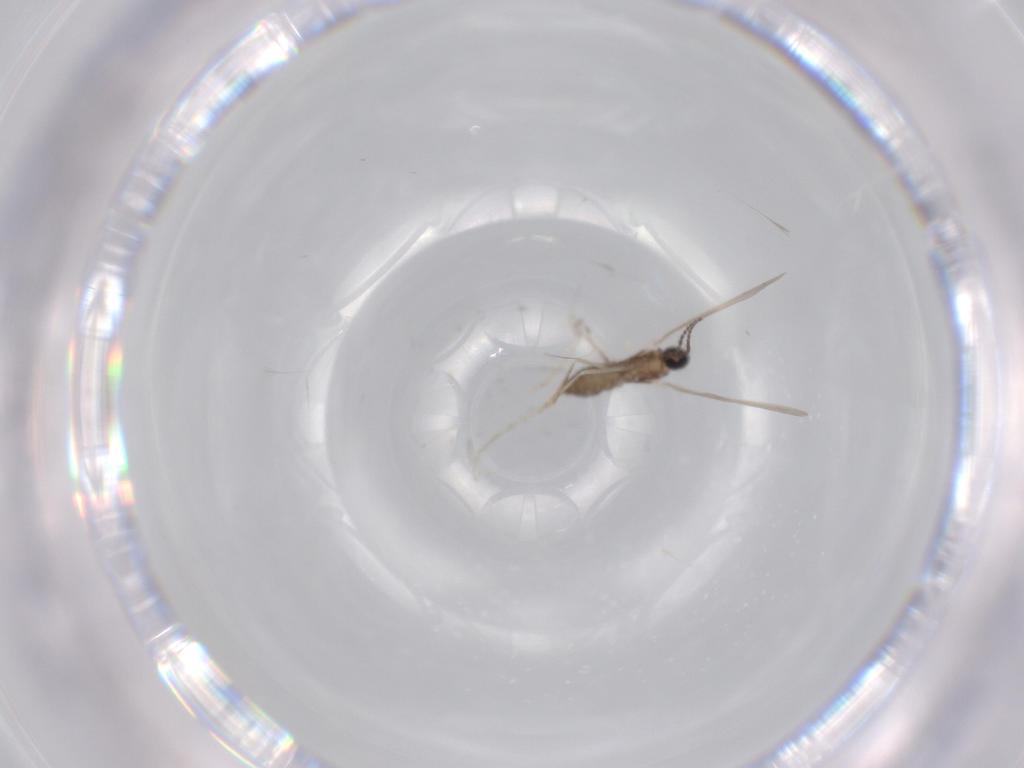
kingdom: Animalia
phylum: Arthropoda
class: Insecta
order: Diptera
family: Cecidomyiidae
